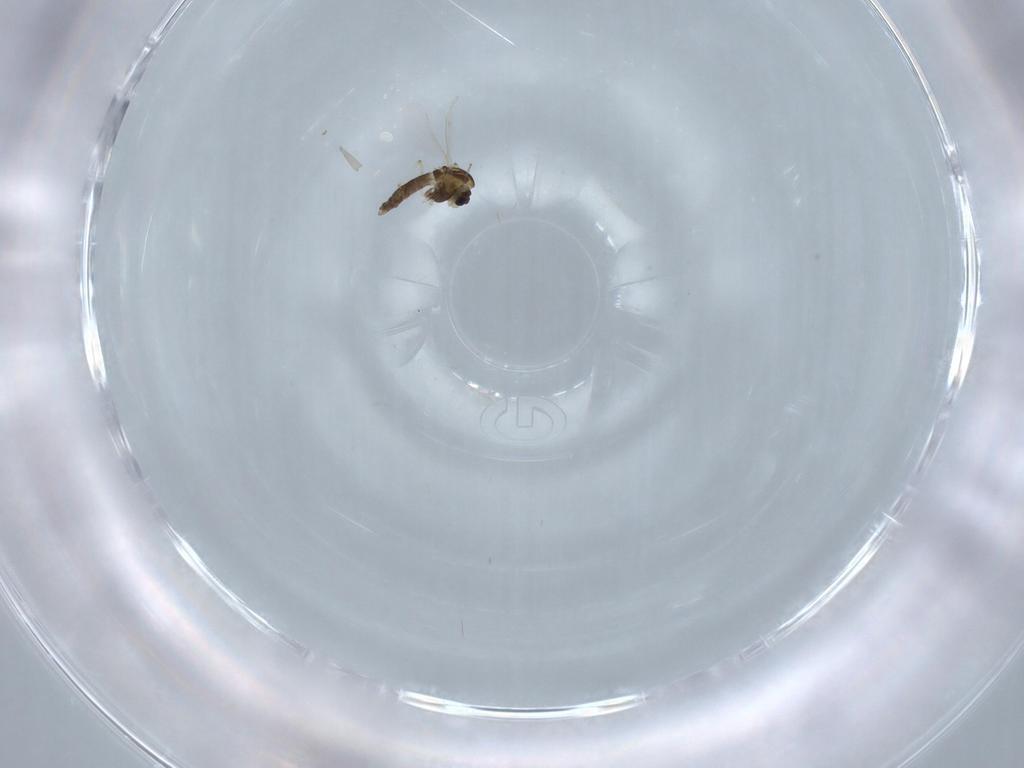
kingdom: Animalia
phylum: Arthropoda
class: Insecta
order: Diptera
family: Chironomidae
